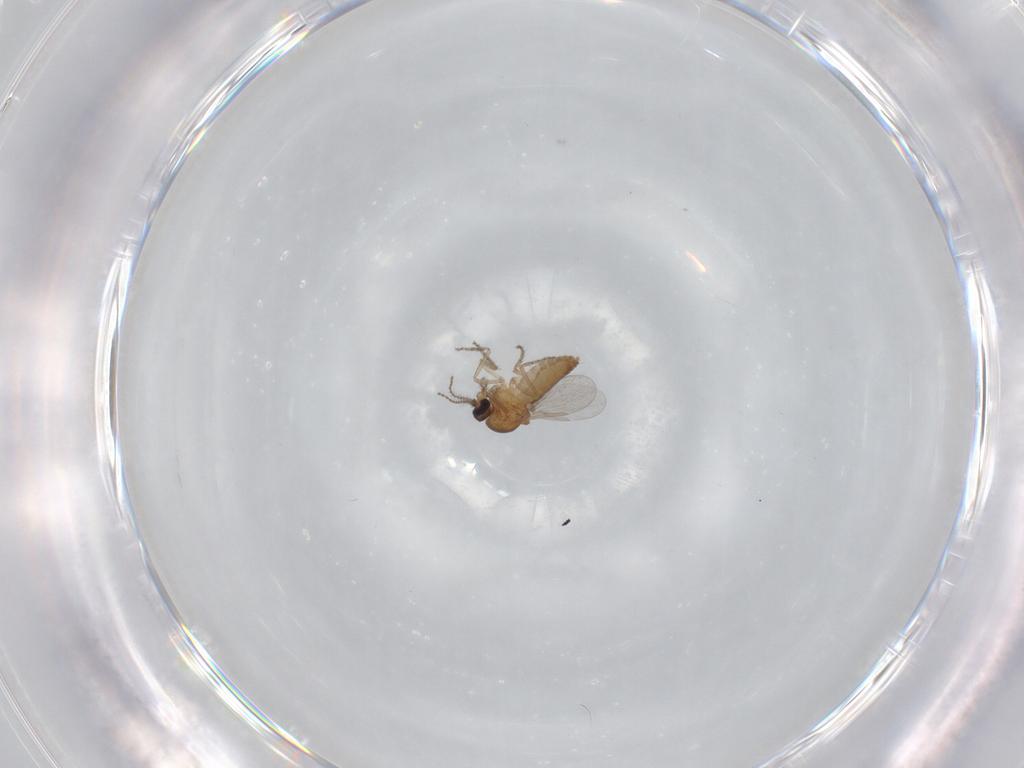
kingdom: Animalia
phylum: Arthropoda
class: Insecta
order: Diptera
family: Ceratopogonidae
